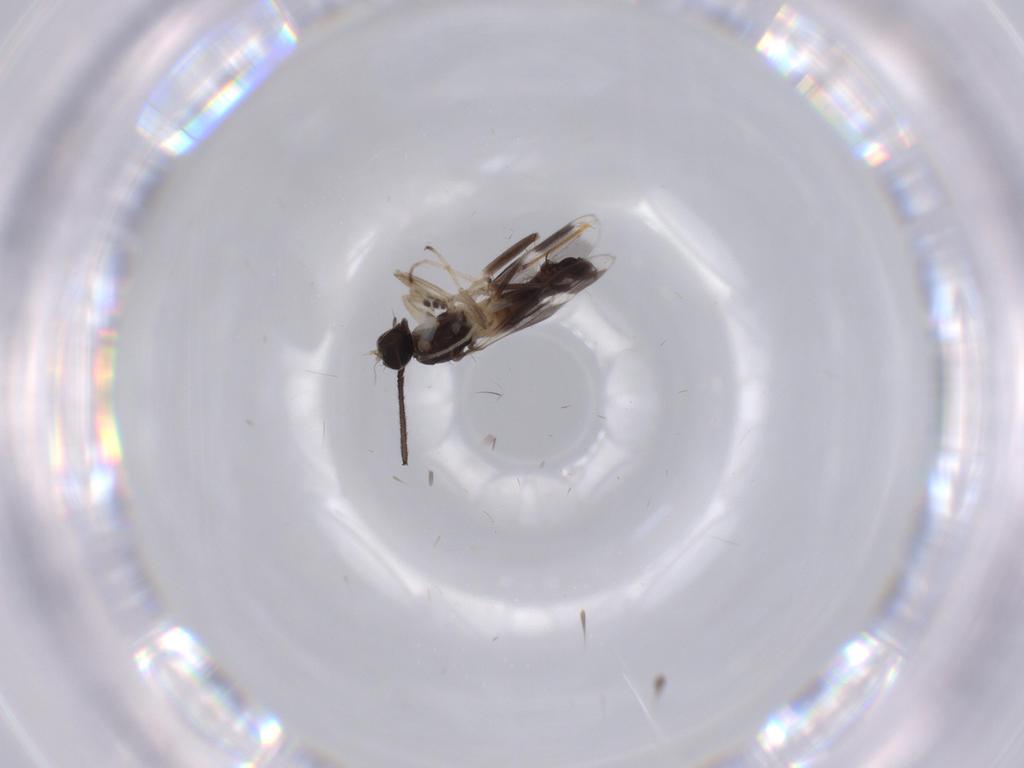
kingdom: Animalia
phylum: Arthropoda
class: Insecta
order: Diptera
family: Hybotidae
